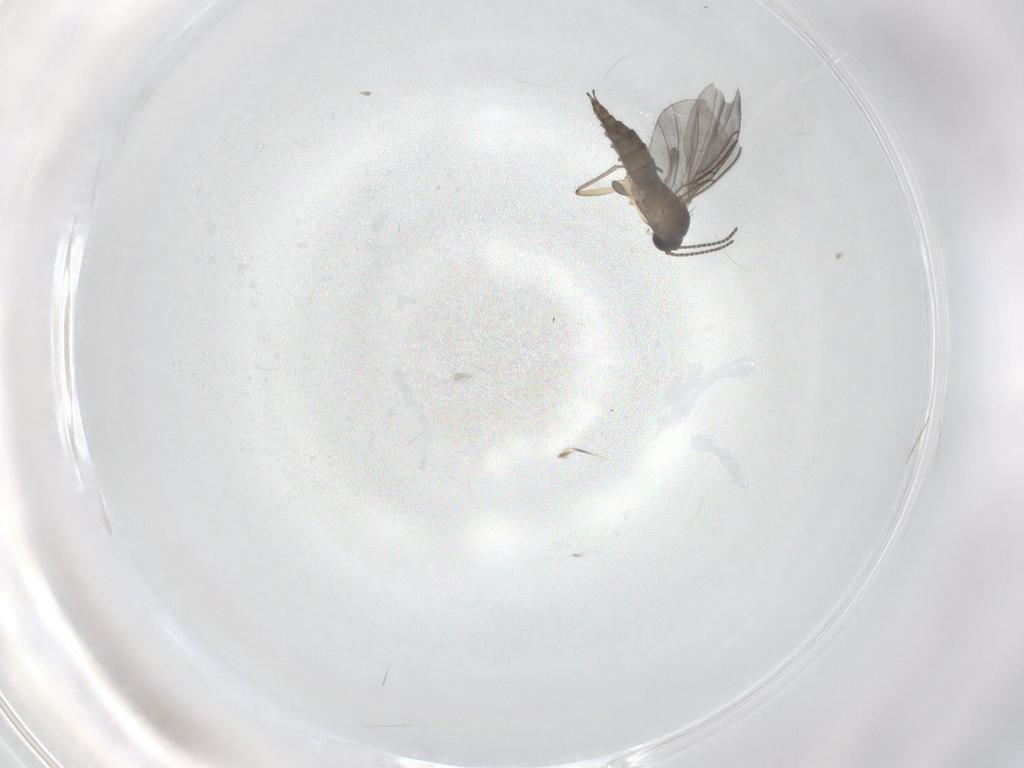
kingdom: Animalia
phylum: Arthropoda
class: Insecta
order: Diptera
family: Sciaridae
